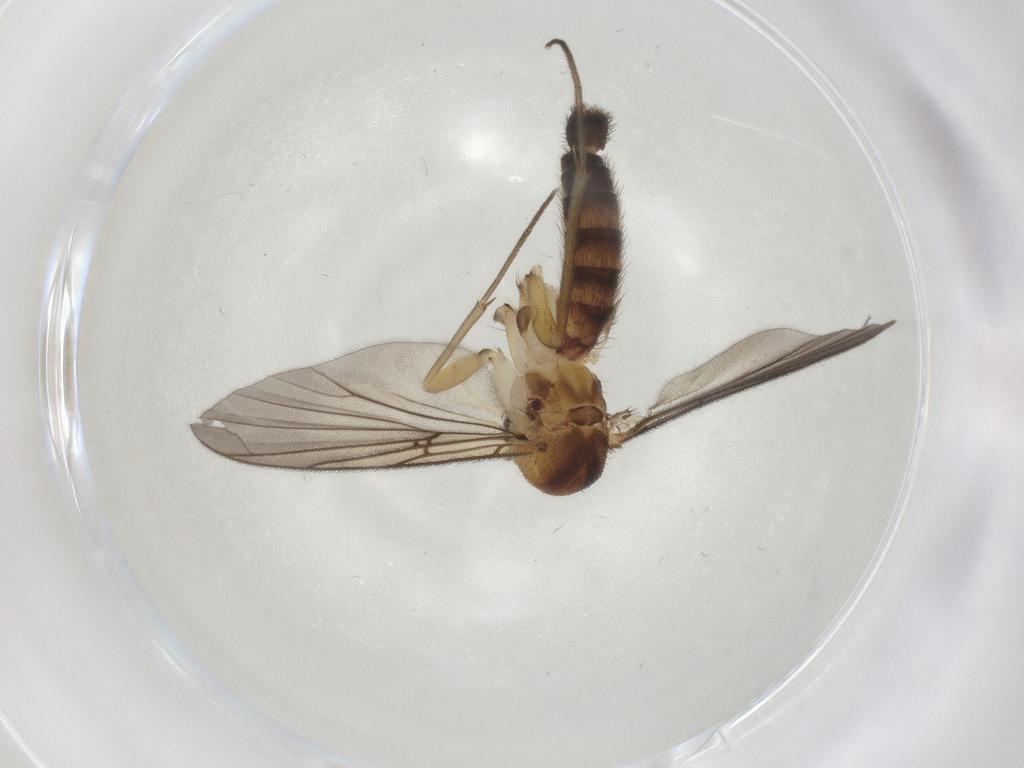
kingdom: Animalia
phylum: Arthropoda
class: Insecta
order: Diptera
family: Mycetophilidae
